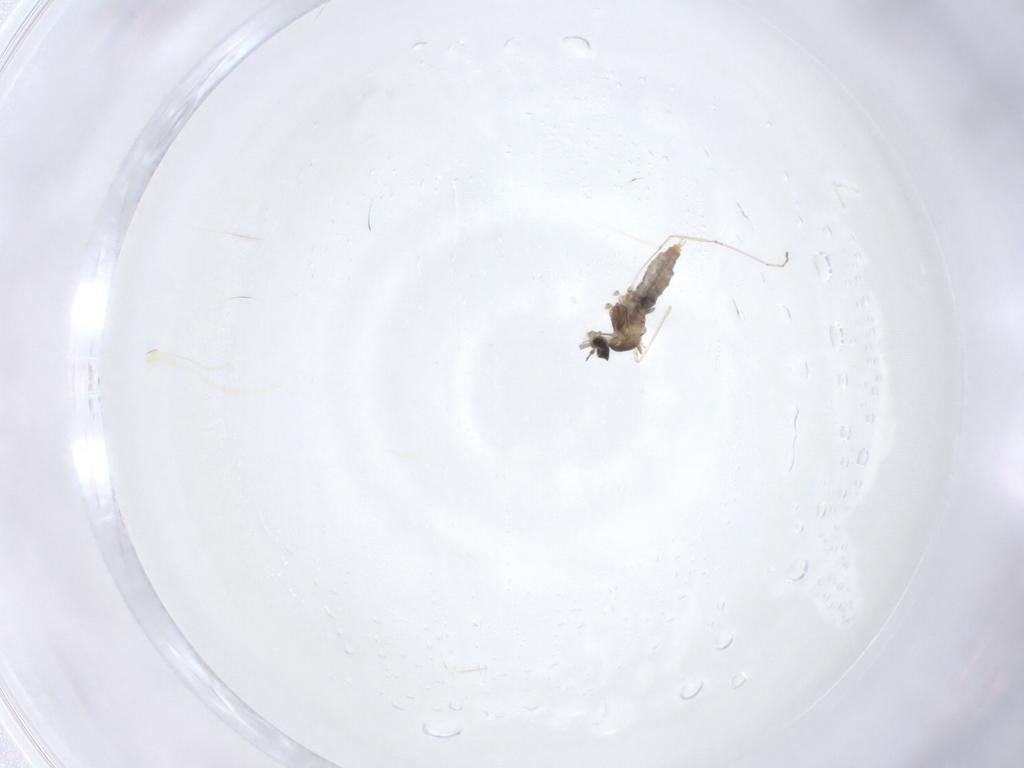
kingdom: Animalia
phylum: Arthropoda
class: Insecta
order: Diptera
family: Cecidomyiidae
